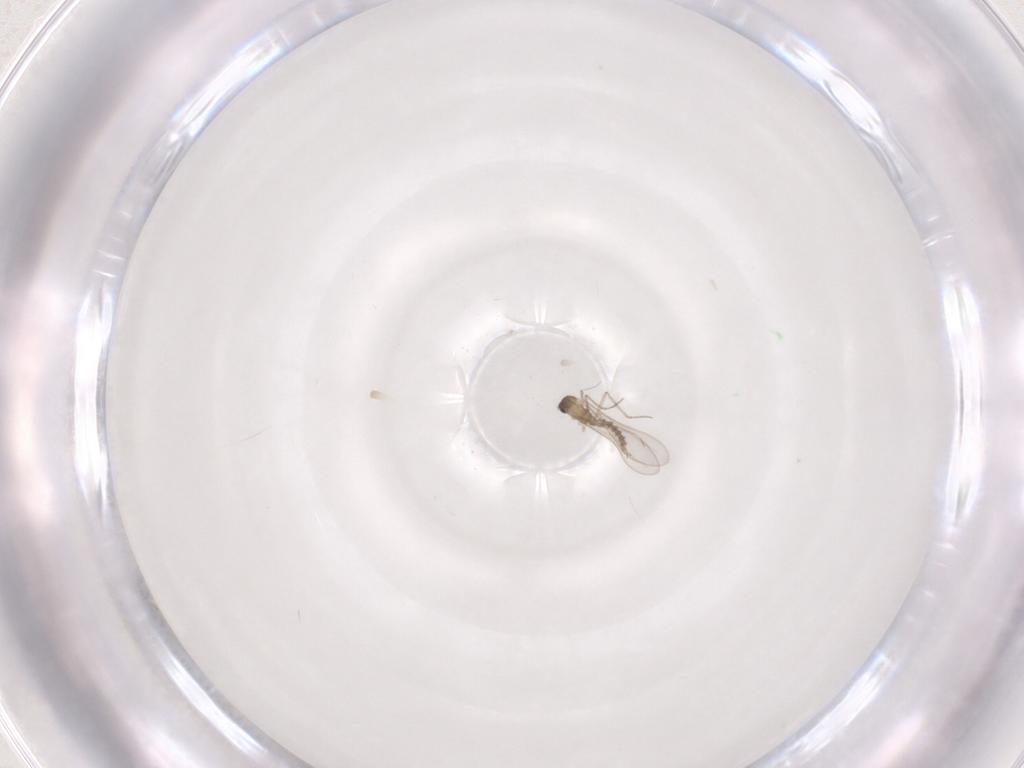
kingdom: Animalia
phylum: Arthropoda
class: Insecta
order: Diptera
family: Cecidomyiidae
